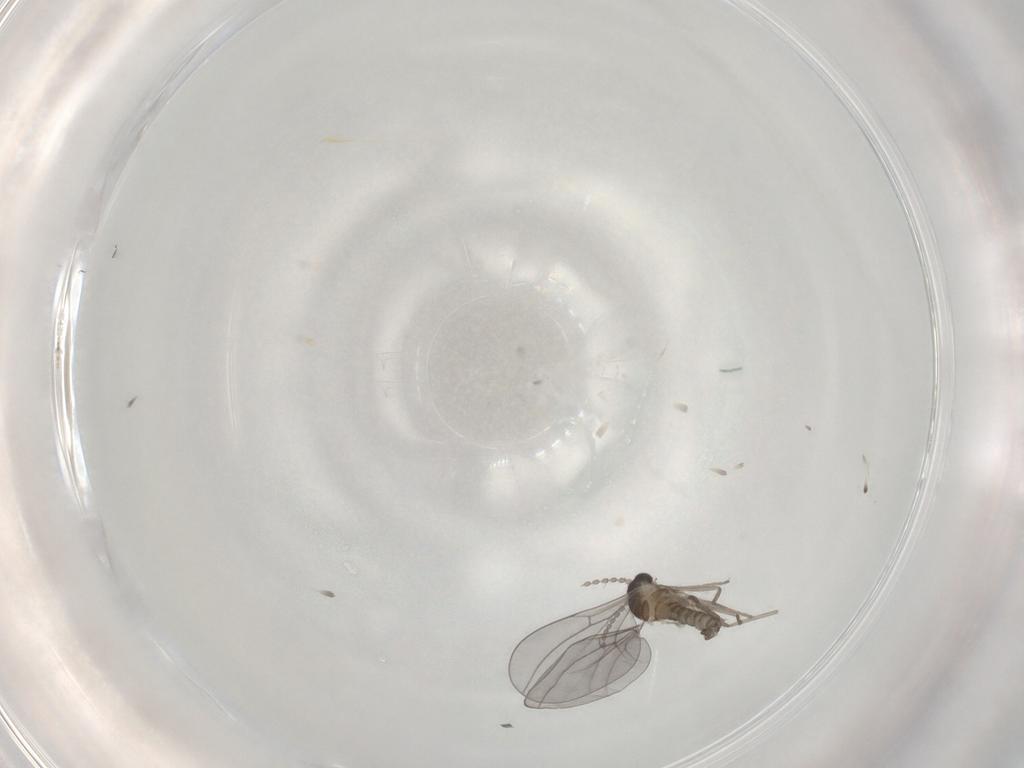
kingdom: Animalia
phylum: Arthropoda
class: Insecta
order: Diptera
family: Cecidomyiidae
